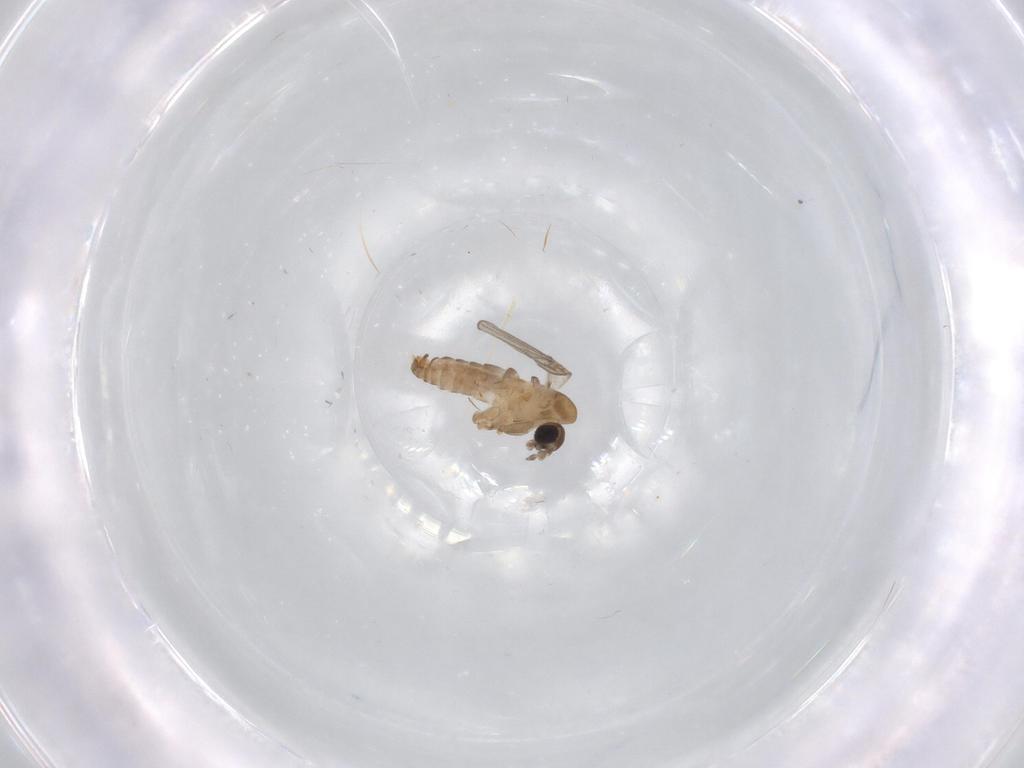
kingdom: Animalia
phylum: Arthropoda
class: Insecta
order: Diptera
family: Psychodidae
